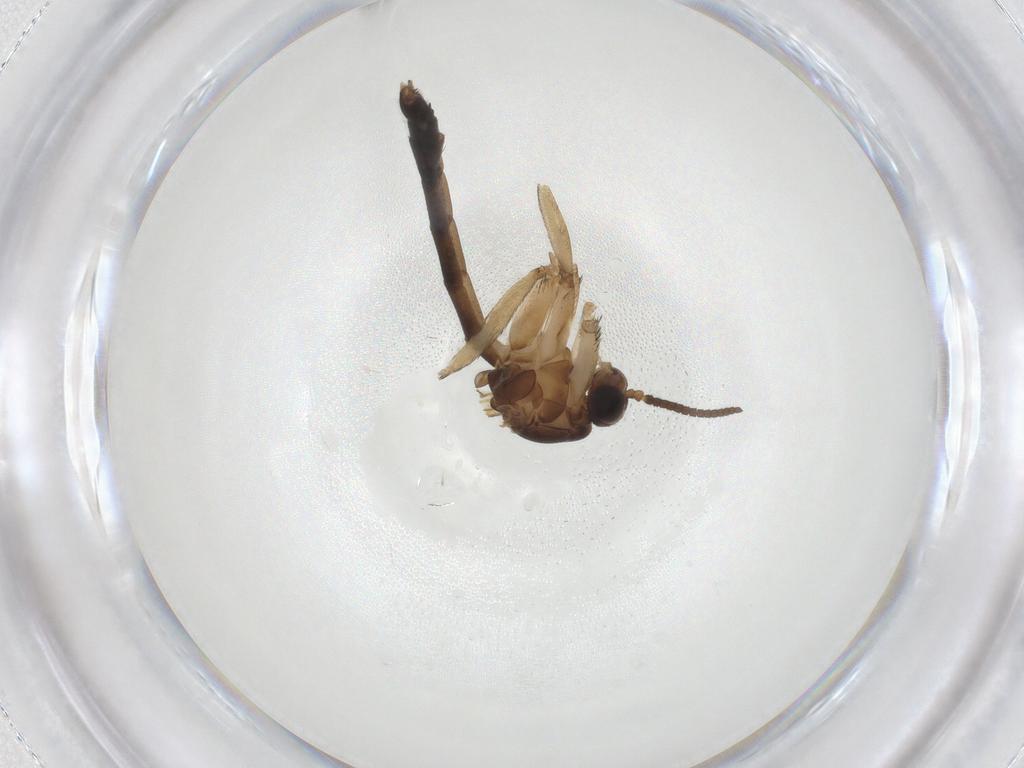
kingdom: Animalia
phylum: Arthropoda
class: Insecta
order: Diptera
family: Keroplatidae
